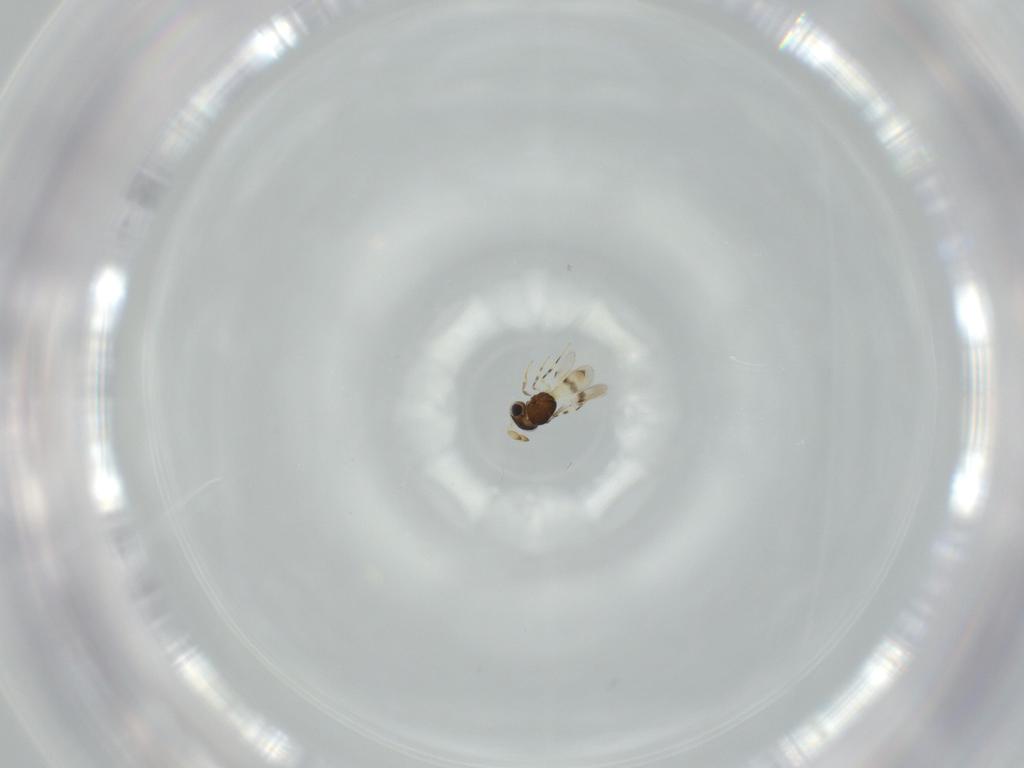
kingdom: Animalia
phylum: Arthropoda
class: Insecta
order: Hymenoptera
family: Scelionidae
